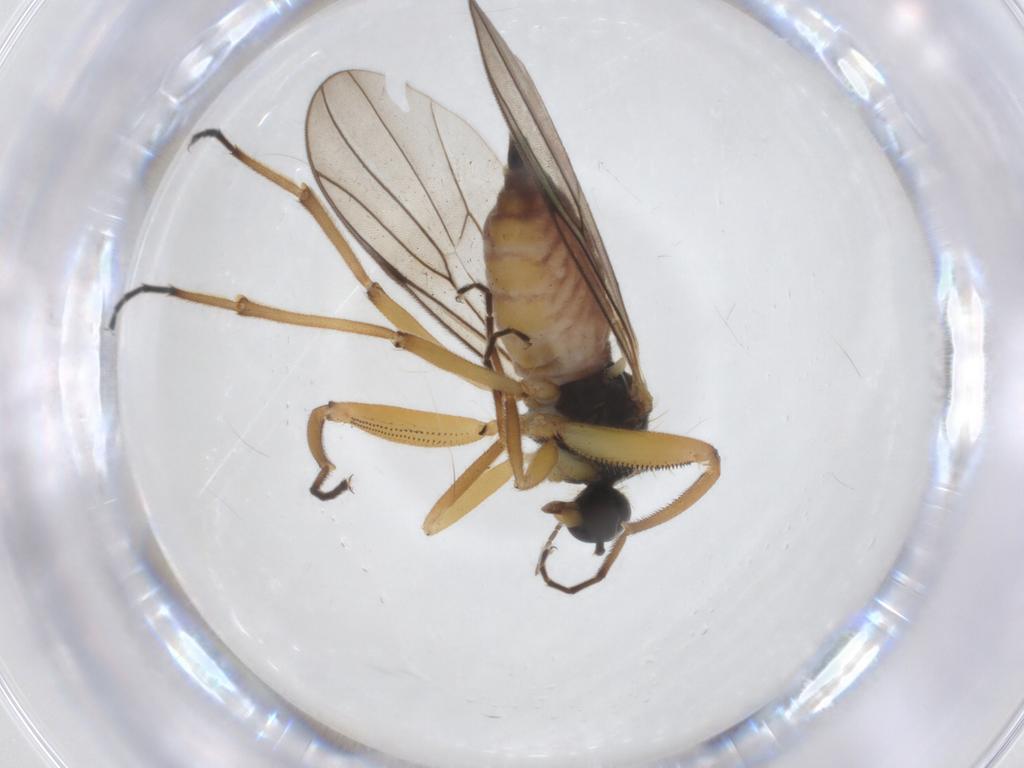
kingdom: Animalia
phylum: Arthropoda
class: Insecta
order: Diptera
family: Hybotidae
